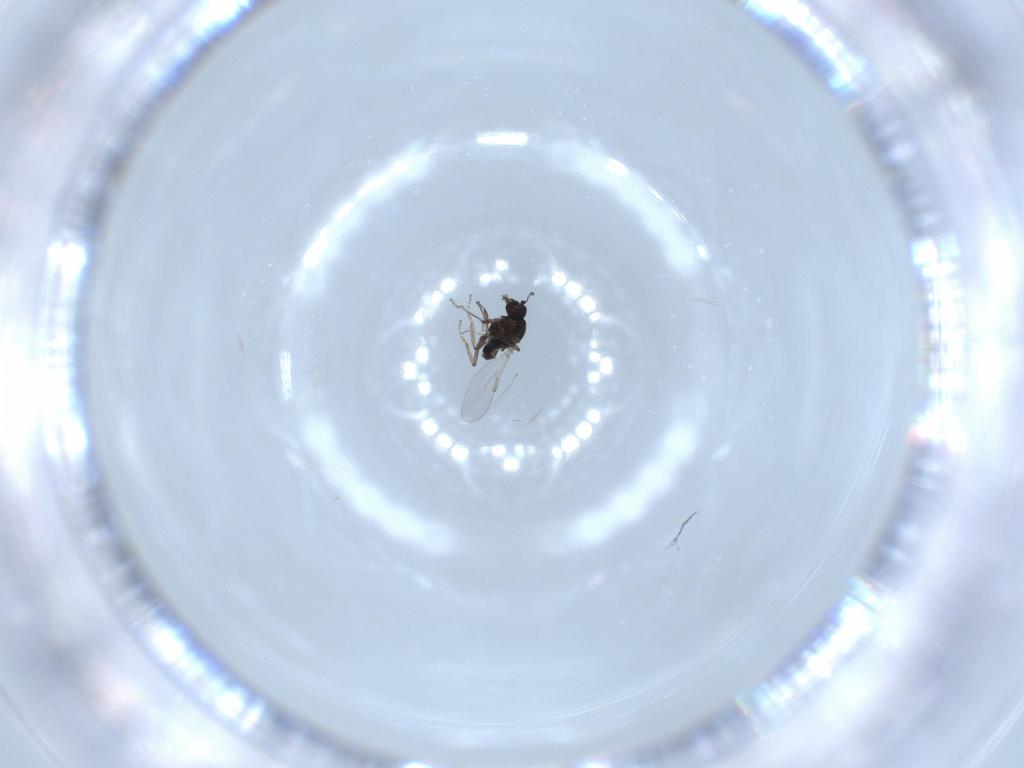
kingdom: Animalia
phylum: Arthropoda
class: Insecta
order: Diptera
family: Chironomidae
